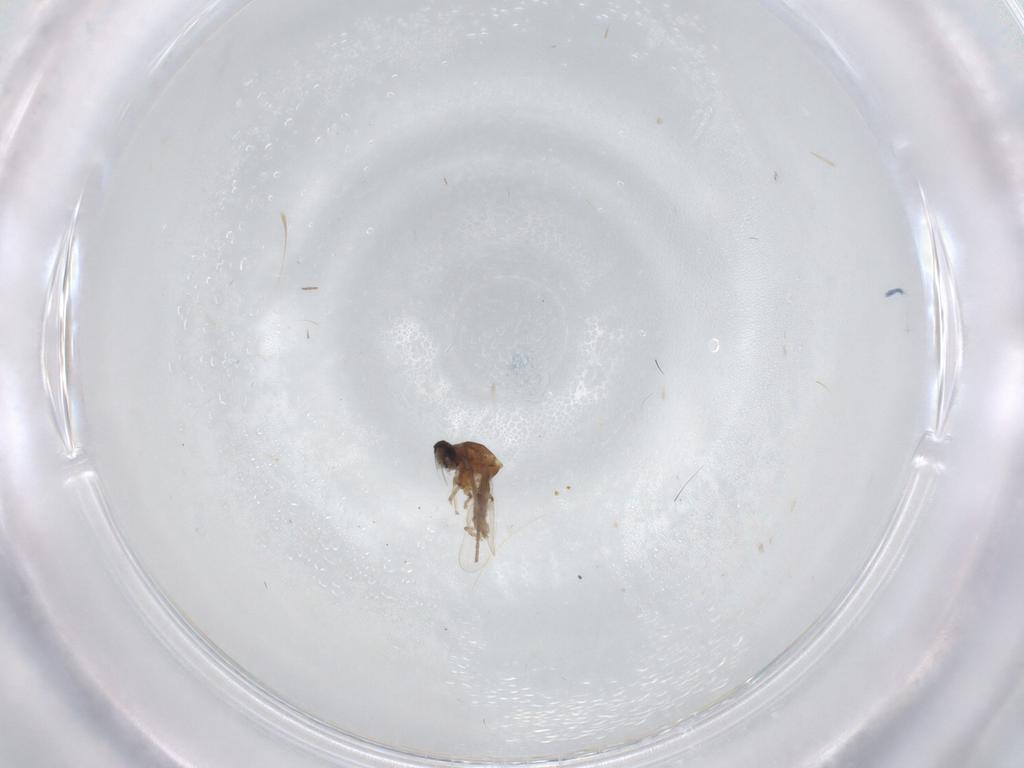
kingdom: Animalia
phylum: Arthropoda
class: Insecta
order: Diptera
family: Ceratopogonidae
